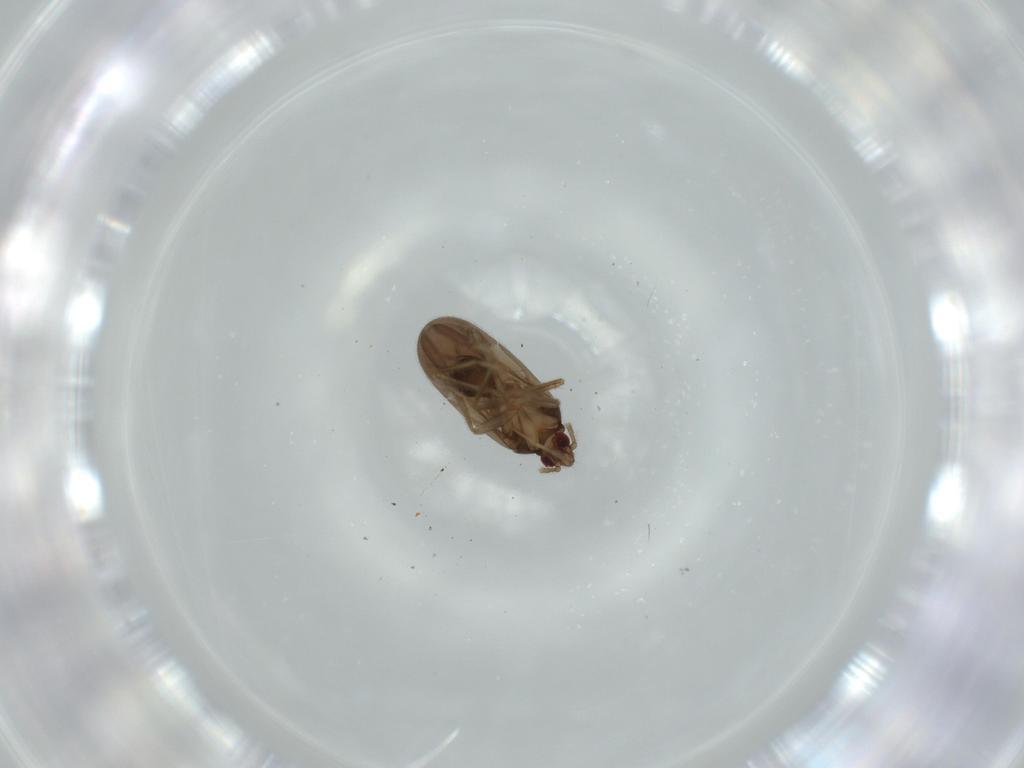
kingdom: Animalia
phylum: Arthropoda
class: Insecta
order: Hemiptera
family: Ceratocombidae
